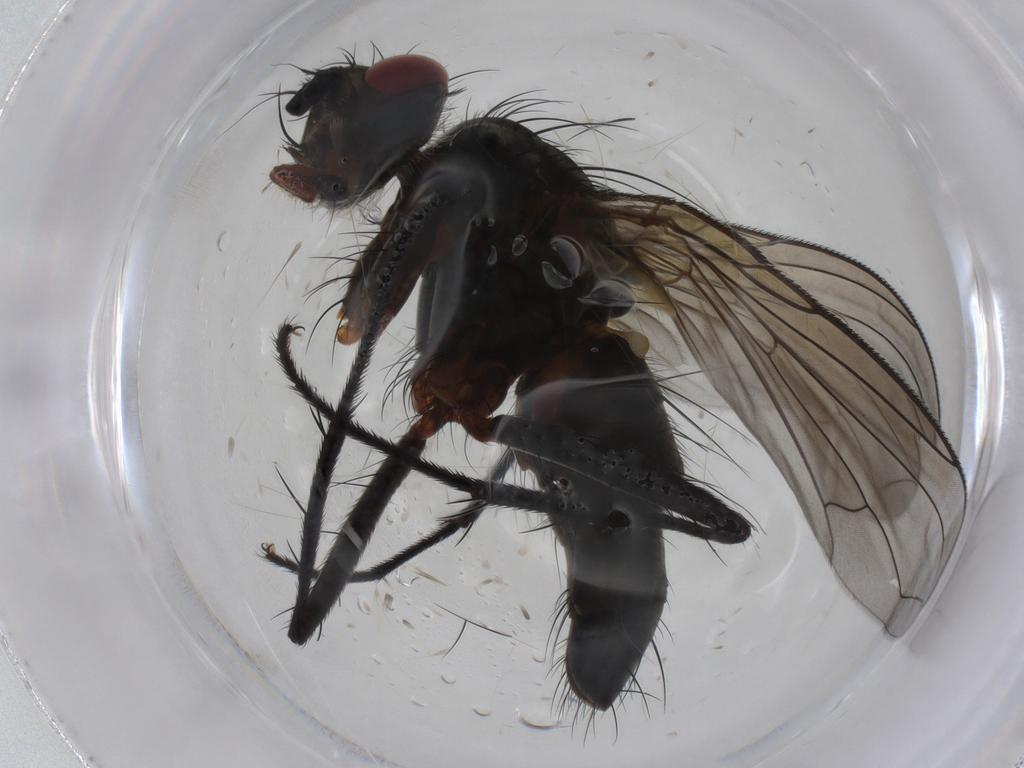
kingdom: Animalia
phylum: Arthropoda
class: Insecta
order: Diptera
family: Tachinidae
